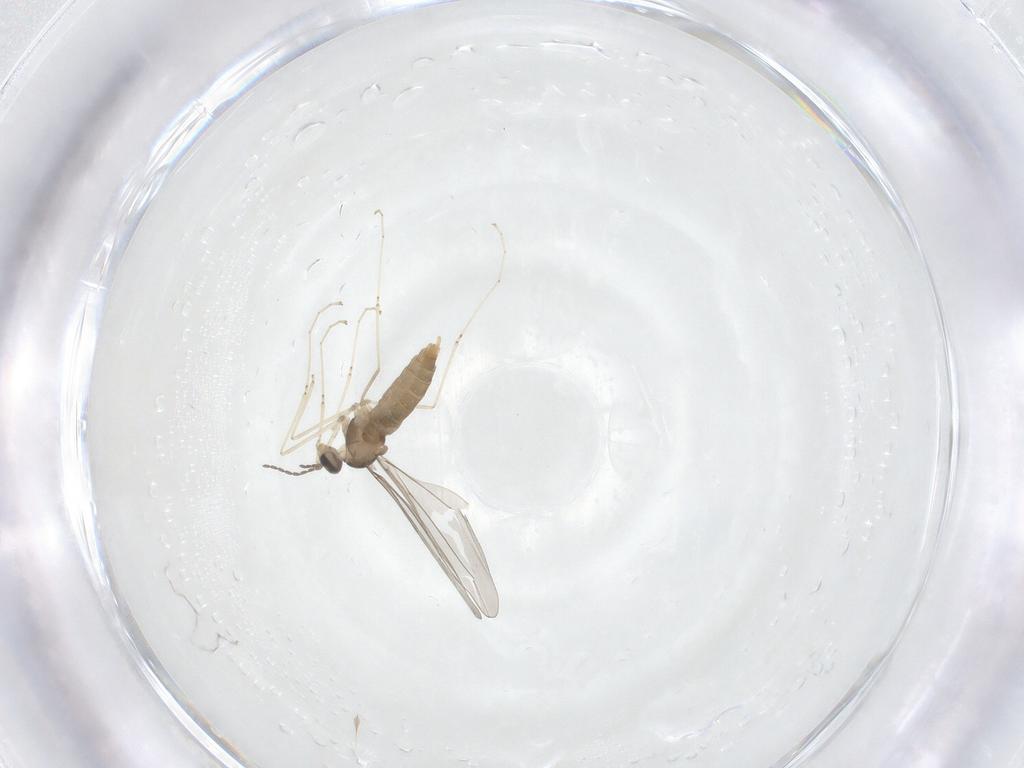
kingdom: Animalia
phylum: Arthropoda
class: Insecta
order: Diptera
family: Cecidomyiidae
